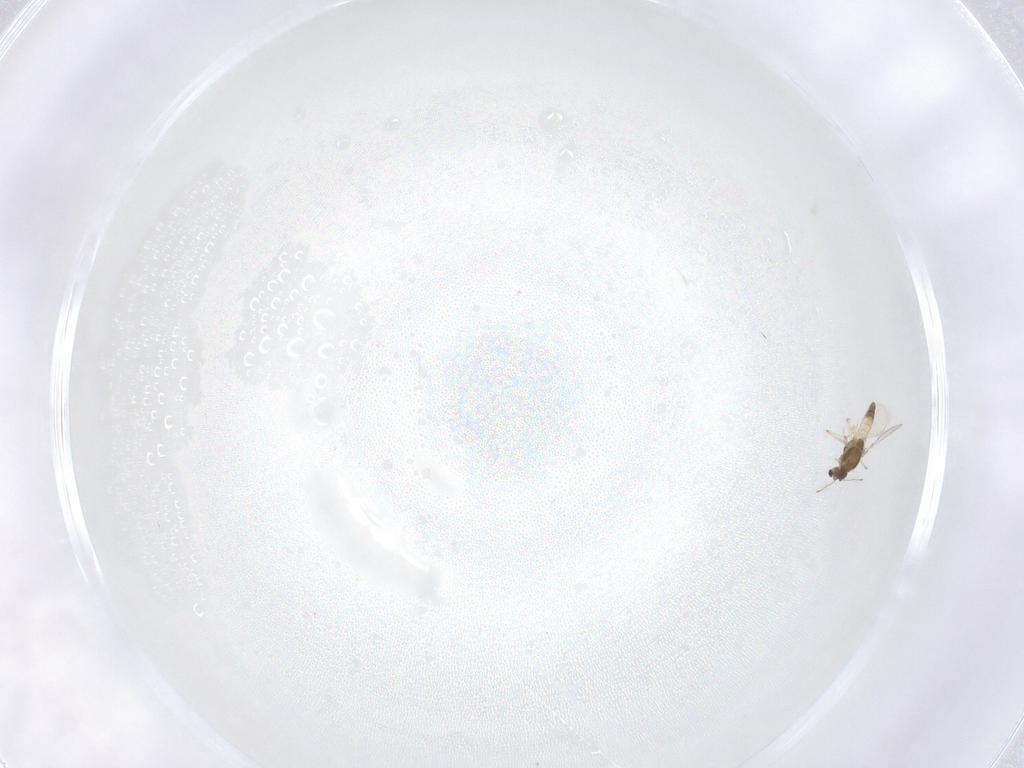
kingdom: Animalia
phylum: Arthropoda
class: Insecta
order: Diptera
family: Chironomidae
